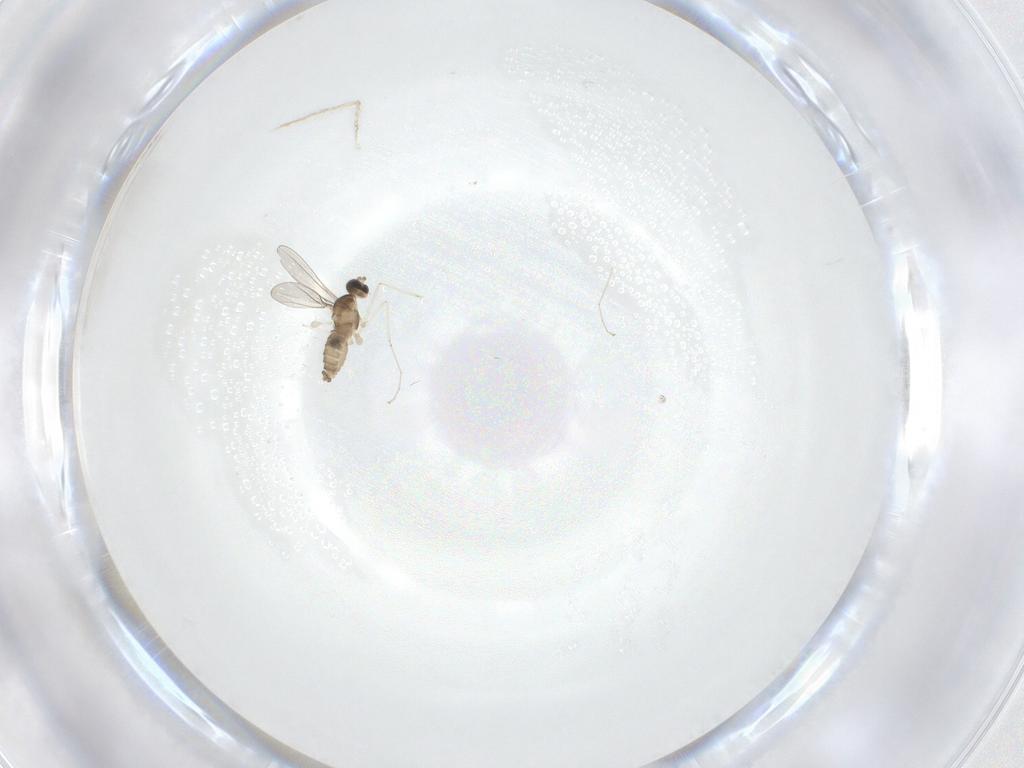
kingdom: Animalia
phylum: Arthropoda
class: Insecta
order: Diptera
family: Cecidomyiidae
